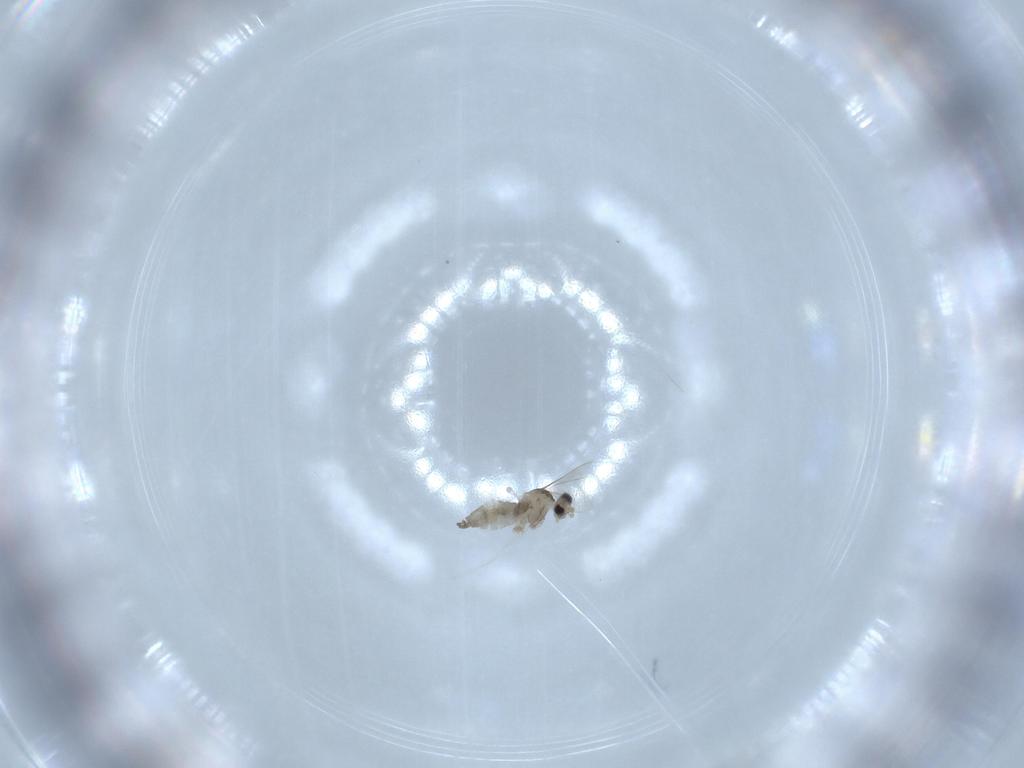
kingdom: Animalia
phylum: Arthropoda
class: Insecta
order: Diptera
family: Cecidomyiidae
